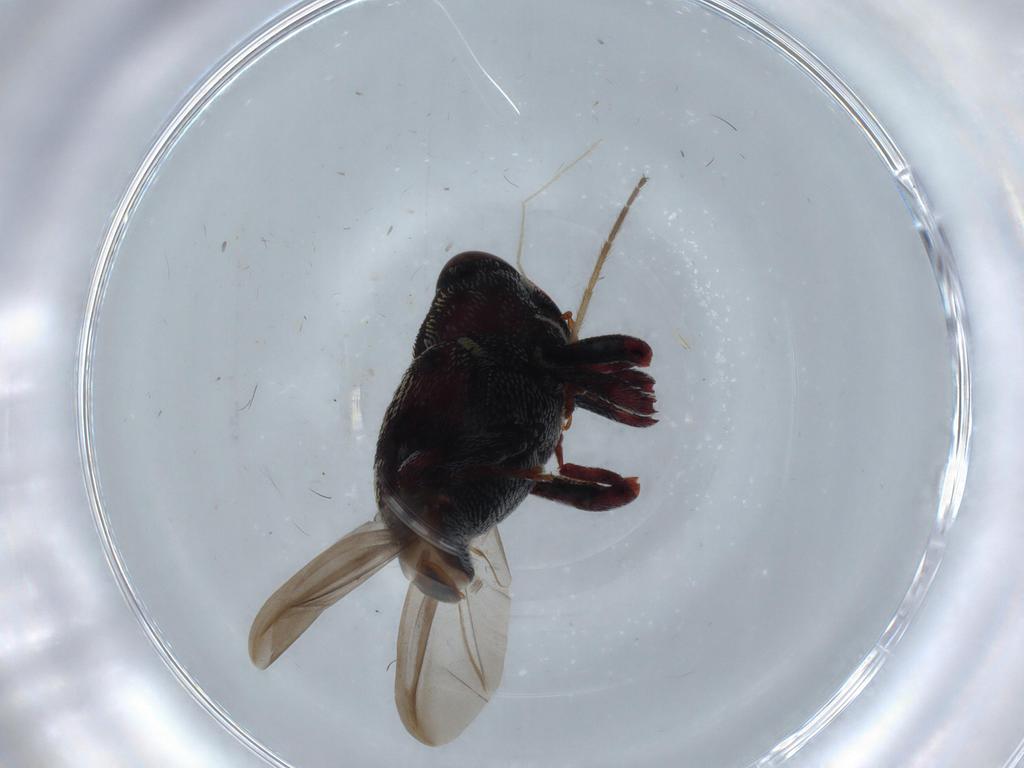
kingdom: Animalia
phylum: Arthropoda
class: Insecta
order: Coleoptera
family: Curculionidae
